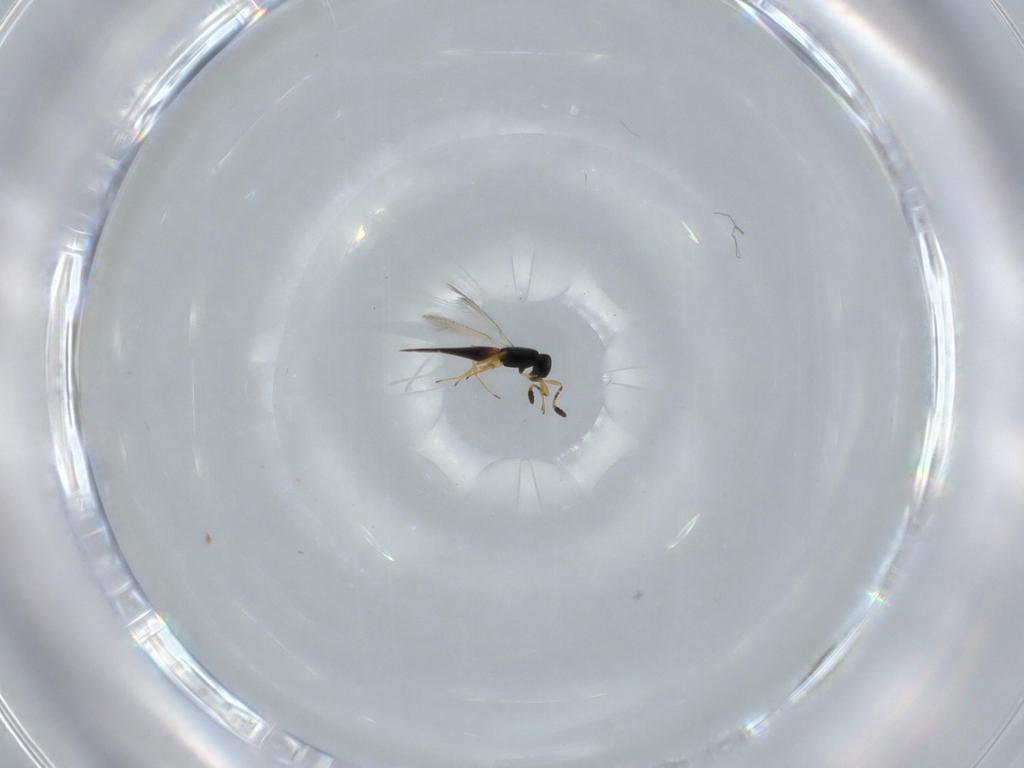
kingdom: Animalia
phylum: Arthropoda
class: Insecta
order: Hymenoptera
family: Scelionidae
